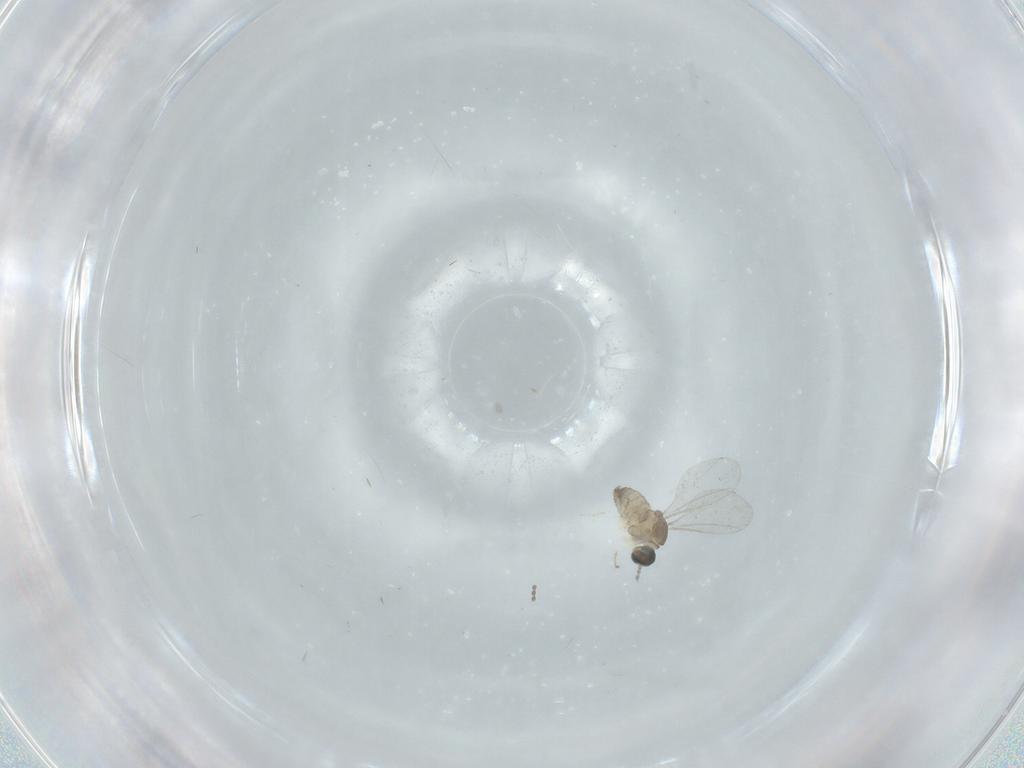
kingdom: Animalia
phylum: Arthropoda
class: Insecta
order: Diptera
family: Cecidomyiidae
